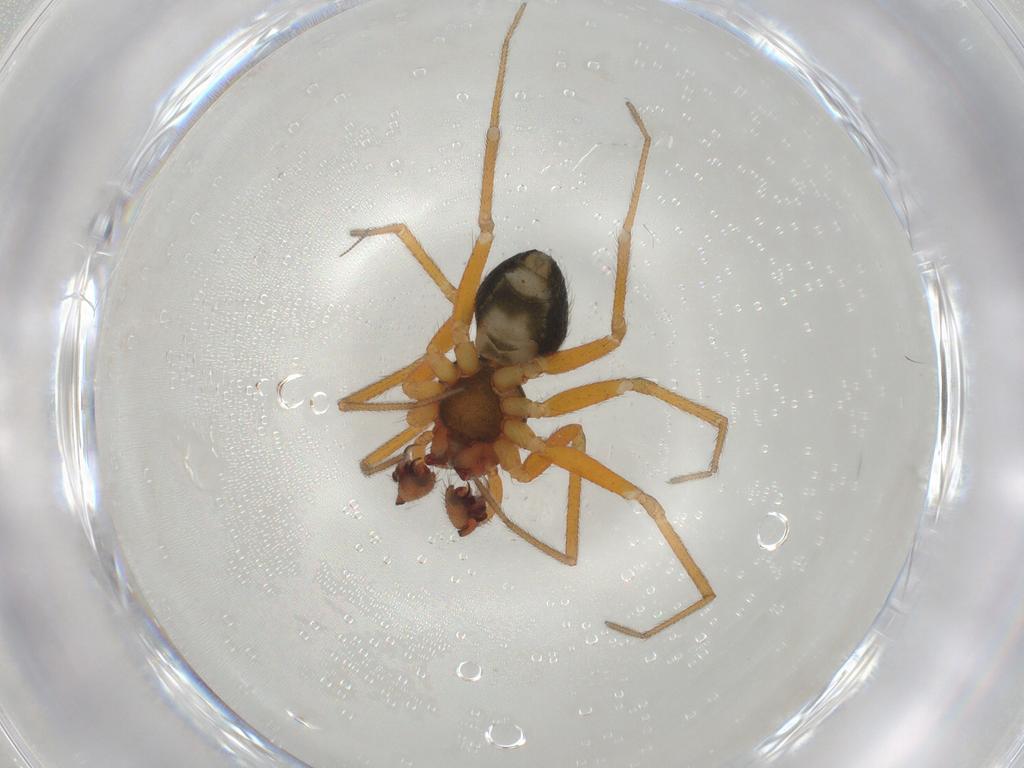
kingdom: Animalia
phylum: Arthropoda
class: Arachnida
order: Araneae
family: Linyphiidae
